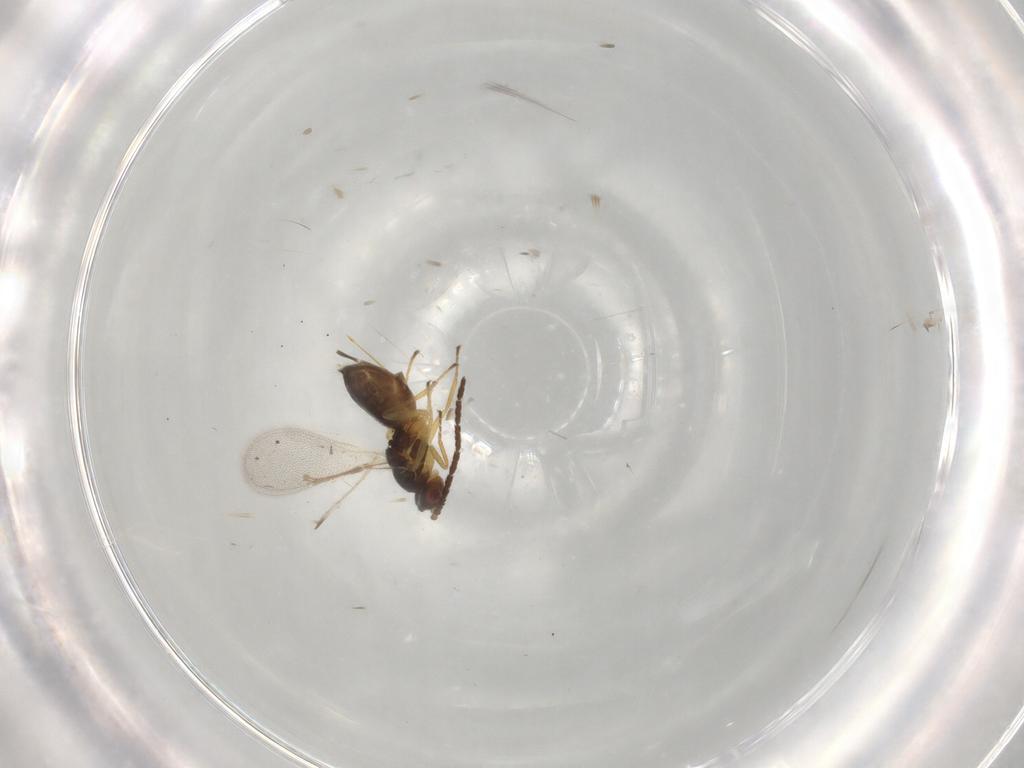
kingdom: Animalia
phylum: Arthropoda
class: Insecta
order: Hymenoptera
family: Eulophidae
